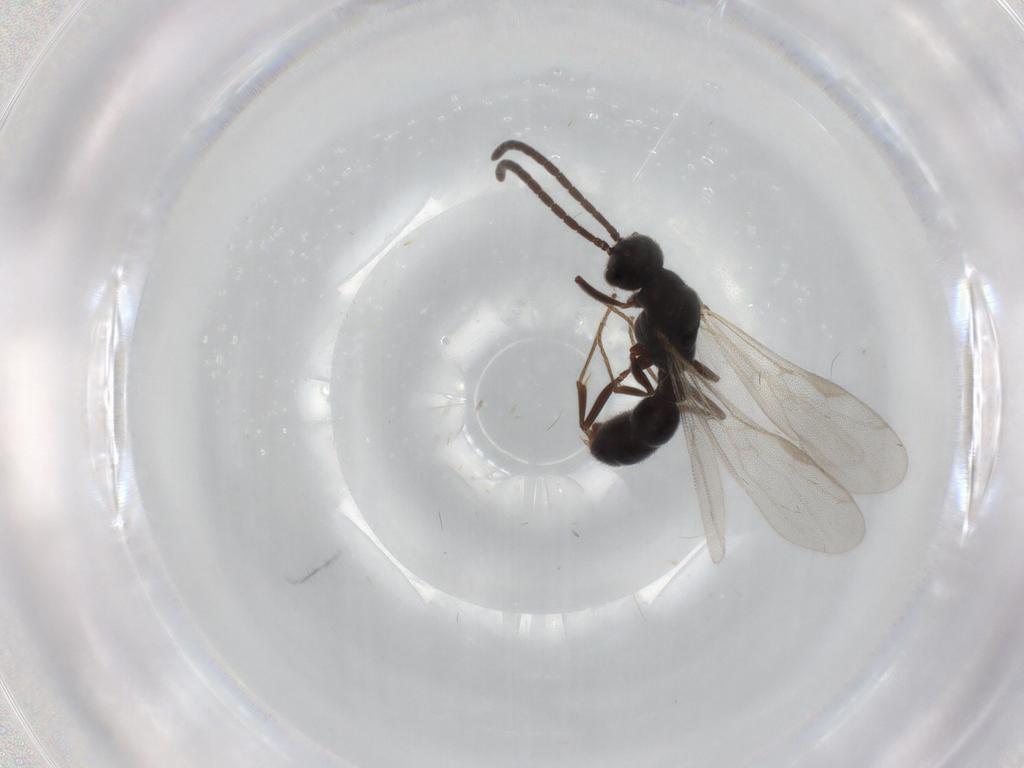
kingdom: Animalia
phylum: Arthropoda
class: Insecta
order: Hymenoptera
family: Formicidae
